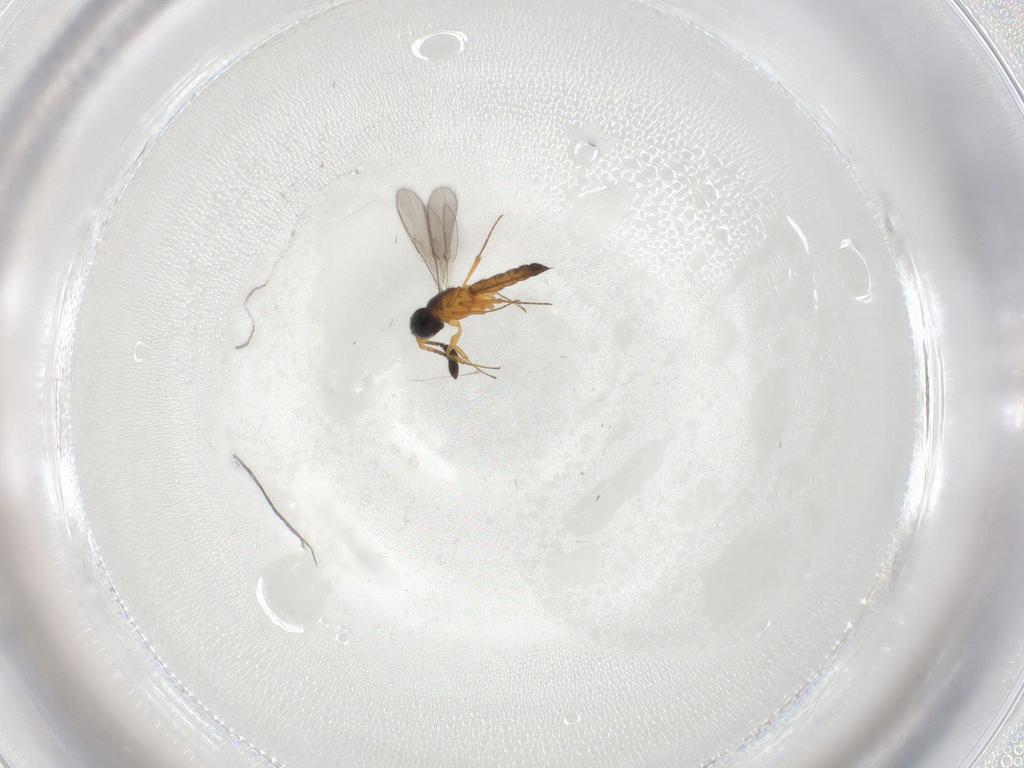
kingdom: Animalia
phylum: Arthropoda
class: Insecta
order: Hymenoptera
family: Scelionidae
